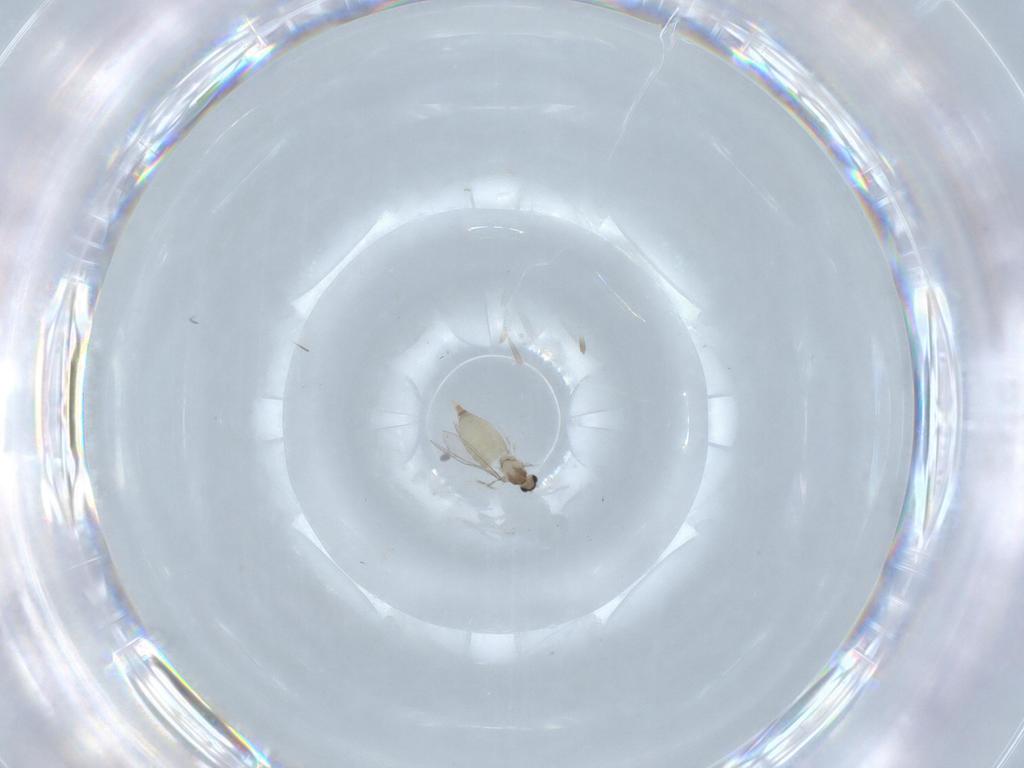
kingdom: Animalia
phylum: Arthropoda
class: Insecta
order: Diptera
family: Cecidomyiidae
